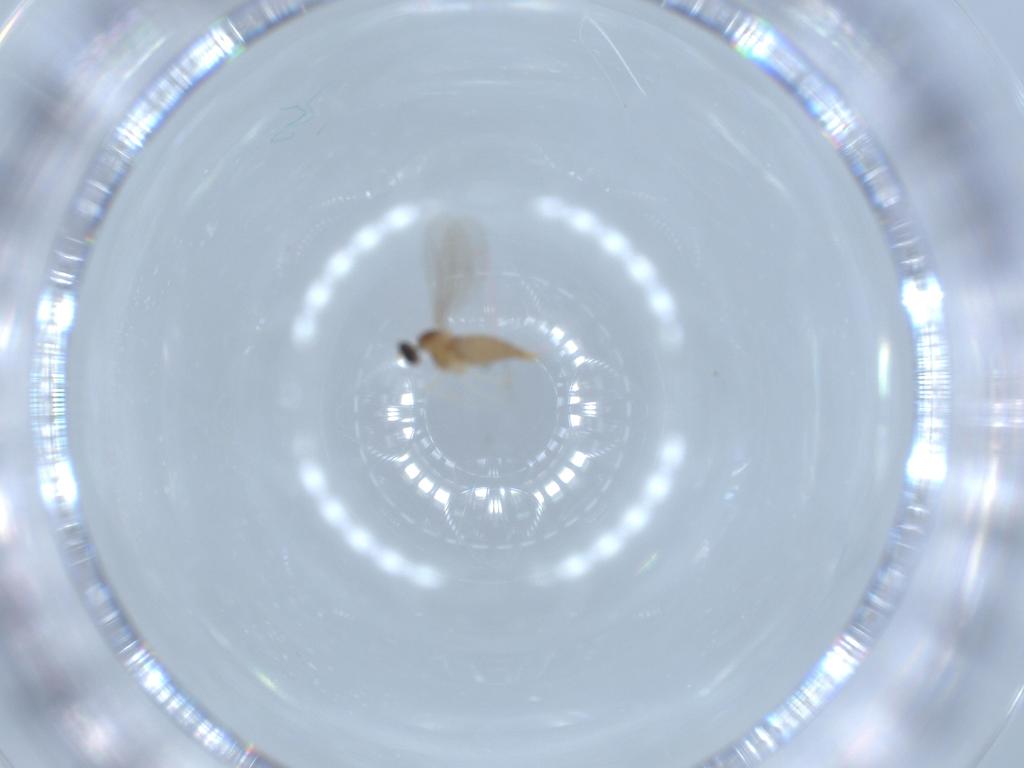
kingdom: Animalia
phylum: Arthropoda
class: Insecta
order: Diptera
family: Cecidomyiidae
